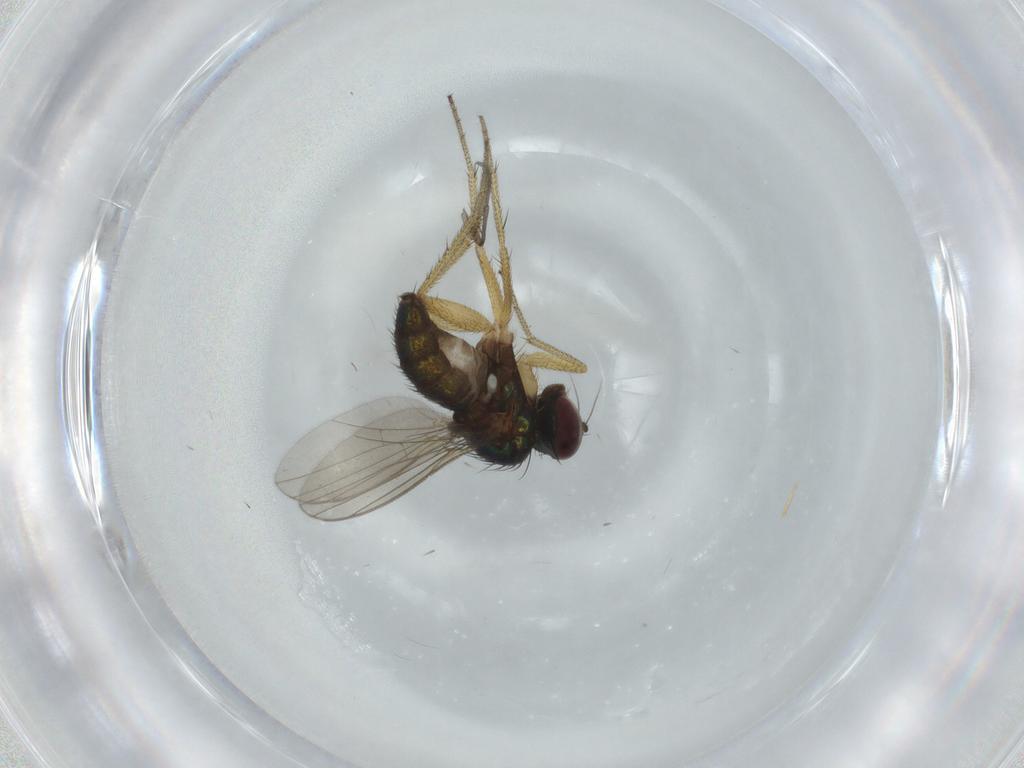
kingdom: Animalia
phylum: Arthropoda
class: Insecta
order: Diptera
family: Sciaridae
